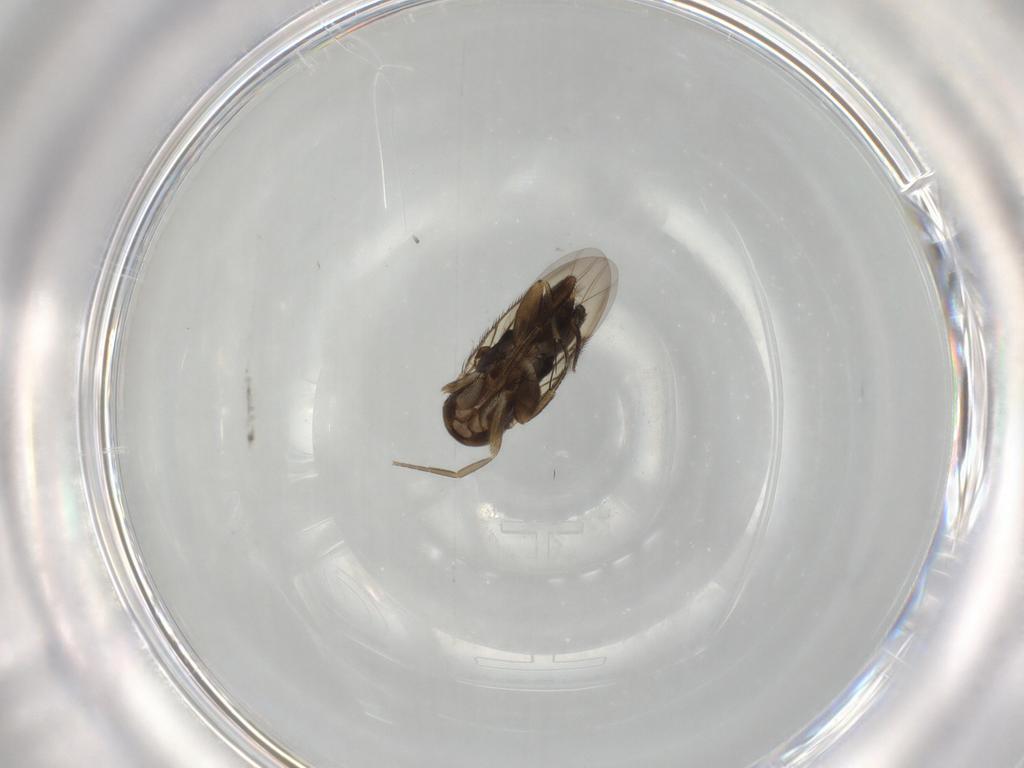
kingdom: Animalia
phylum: Arthropoda
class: Insecta
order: Diptera
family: Phoridae
